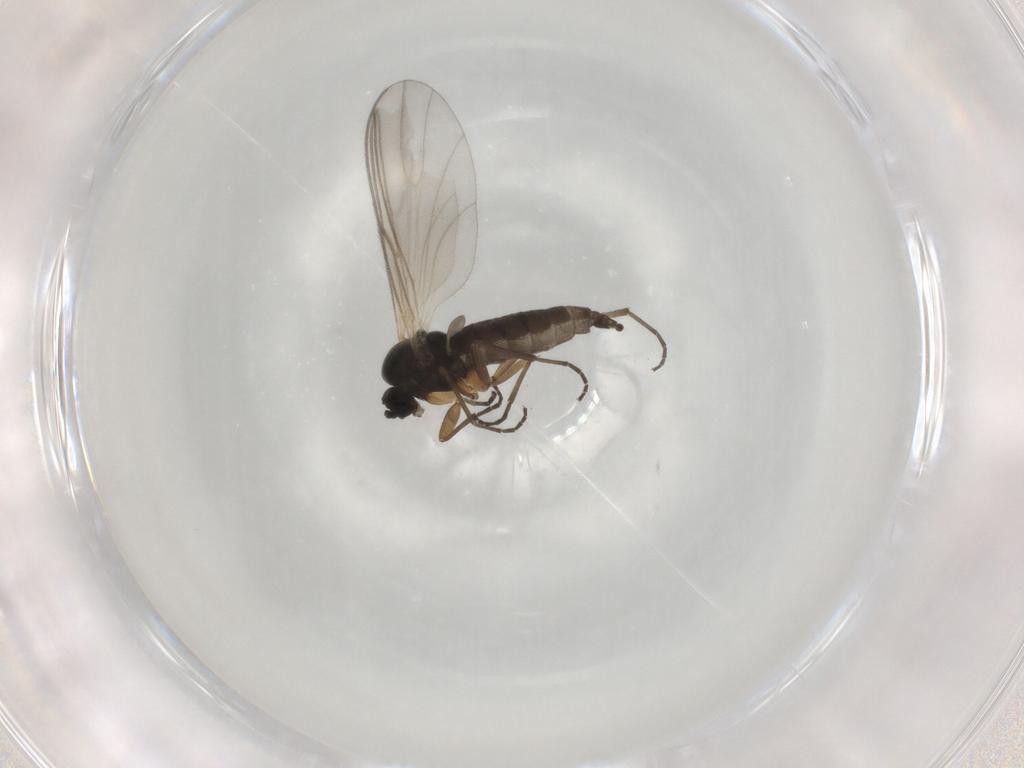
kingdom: Animalia
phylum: Arthropoda
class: Insecta
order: Diptera
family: Chironomidae
